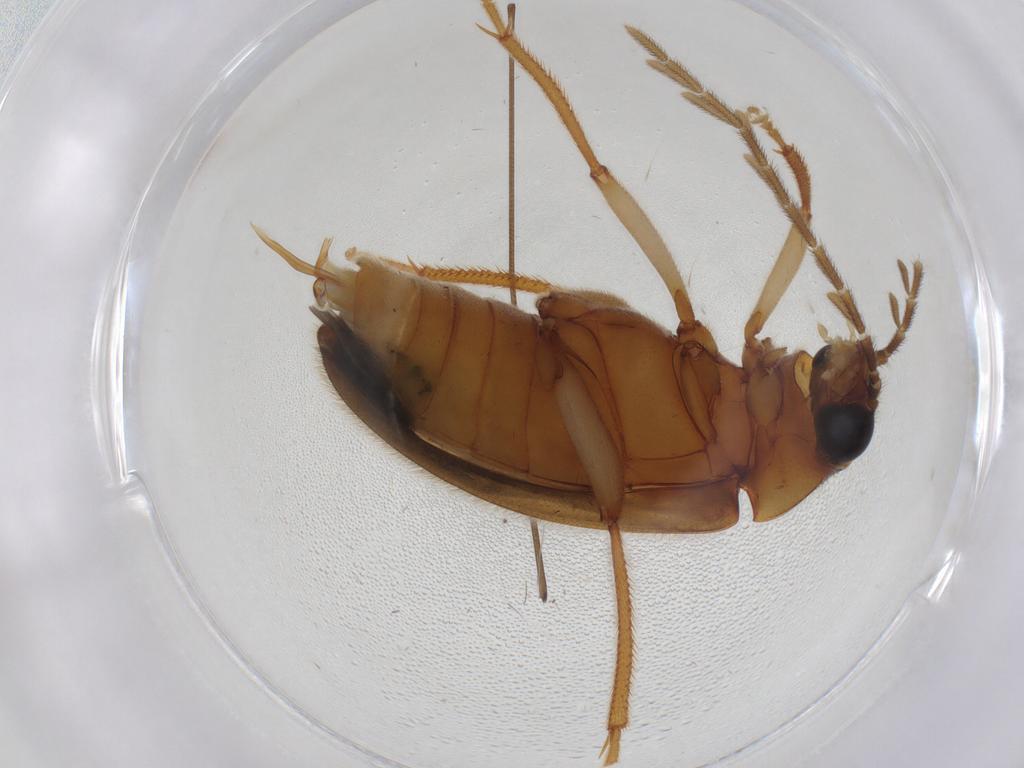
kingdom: Animalia
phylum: Arthropoda
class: Insecta
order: Coleoptera
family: Ptilodactylidae
